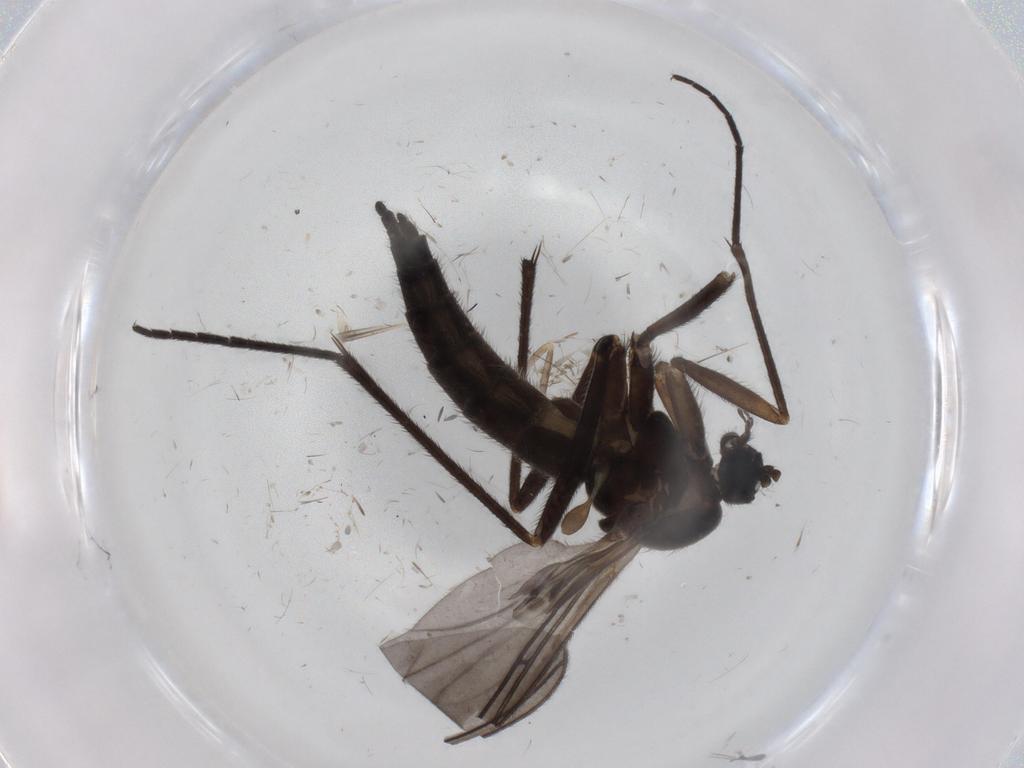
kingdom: Animalia
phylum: Arthropoda
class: Insecta
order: Diptera
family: Sciaridae
